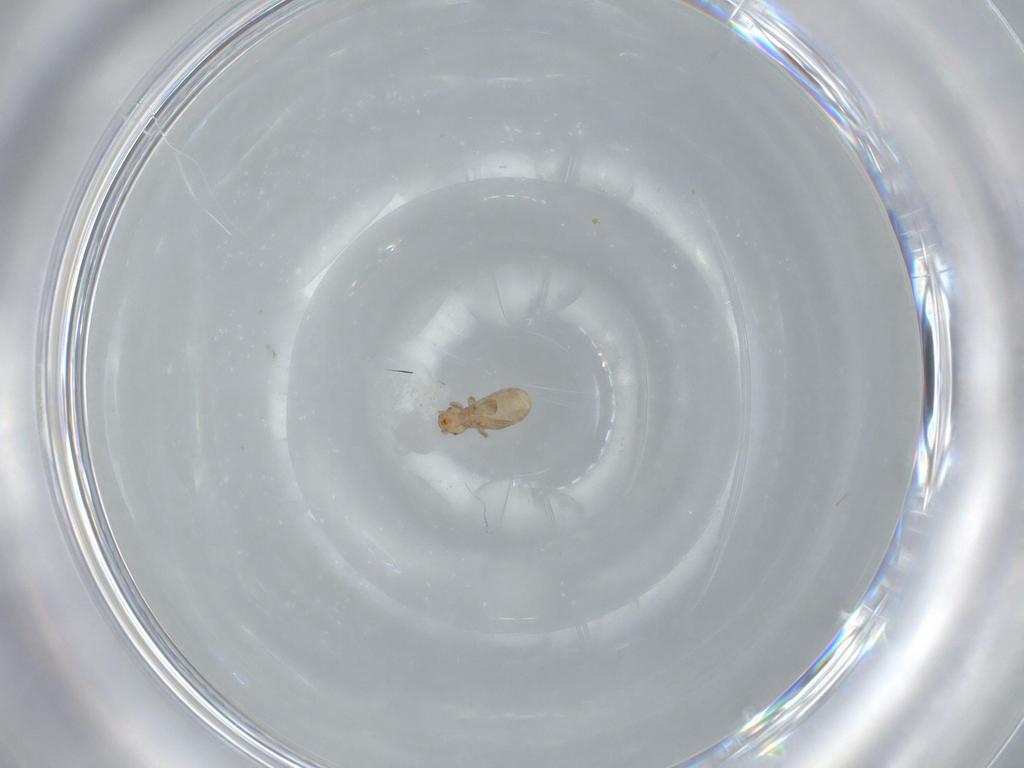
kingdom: Animalia
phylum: Arthropoda
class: Insecta
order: Psocodea
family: Liposcelididae
